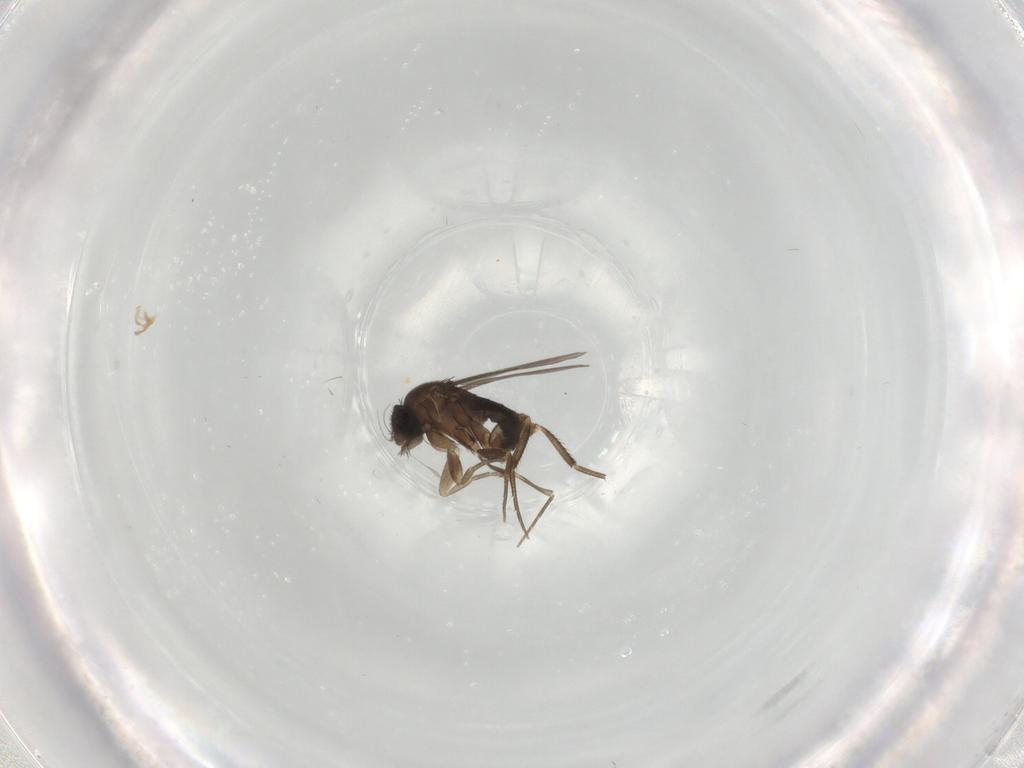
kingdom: Animalia
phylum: Arthropoda
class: Insecta
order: Diptera
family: Phoridae
